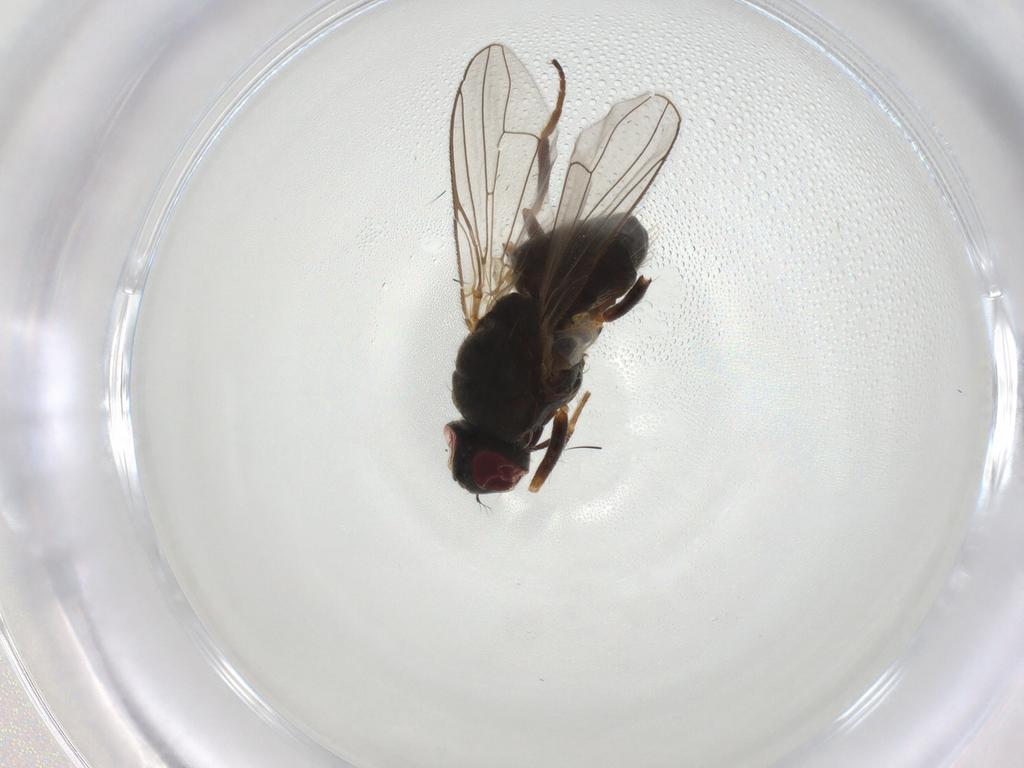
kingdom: Animalia
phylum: Arthropoda
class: Insecta
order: Diptera
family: Muscidae
